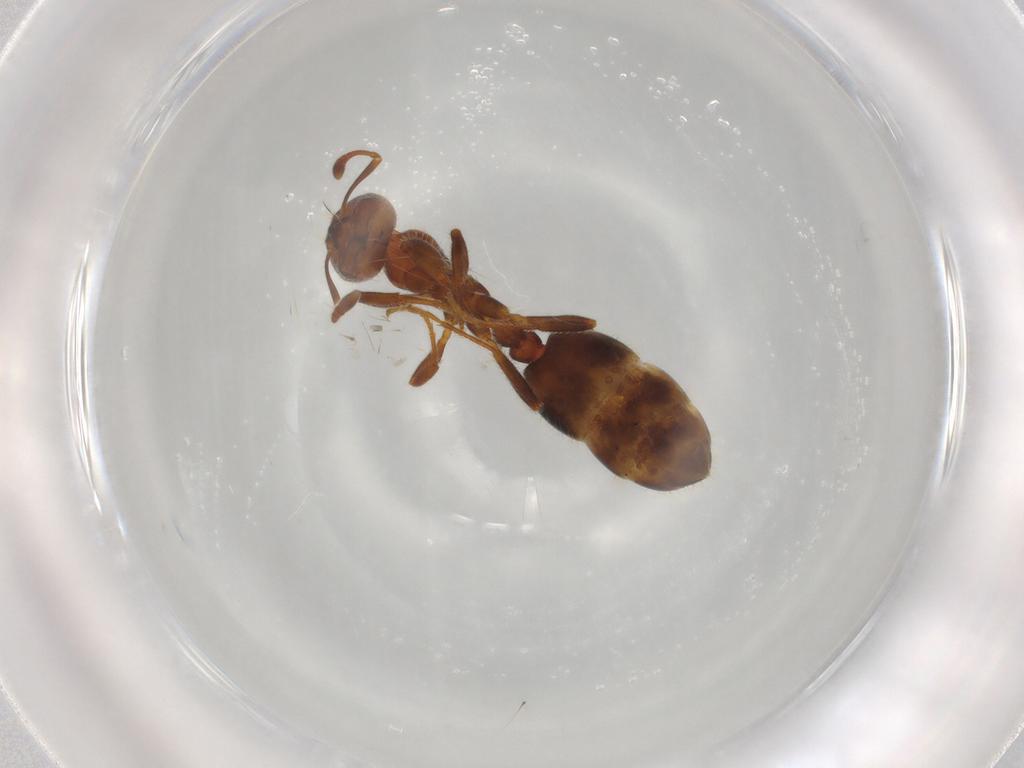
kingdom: Animalia
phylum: Arthropoda
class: Insecta
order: Hymenoptera
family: Formicidae
